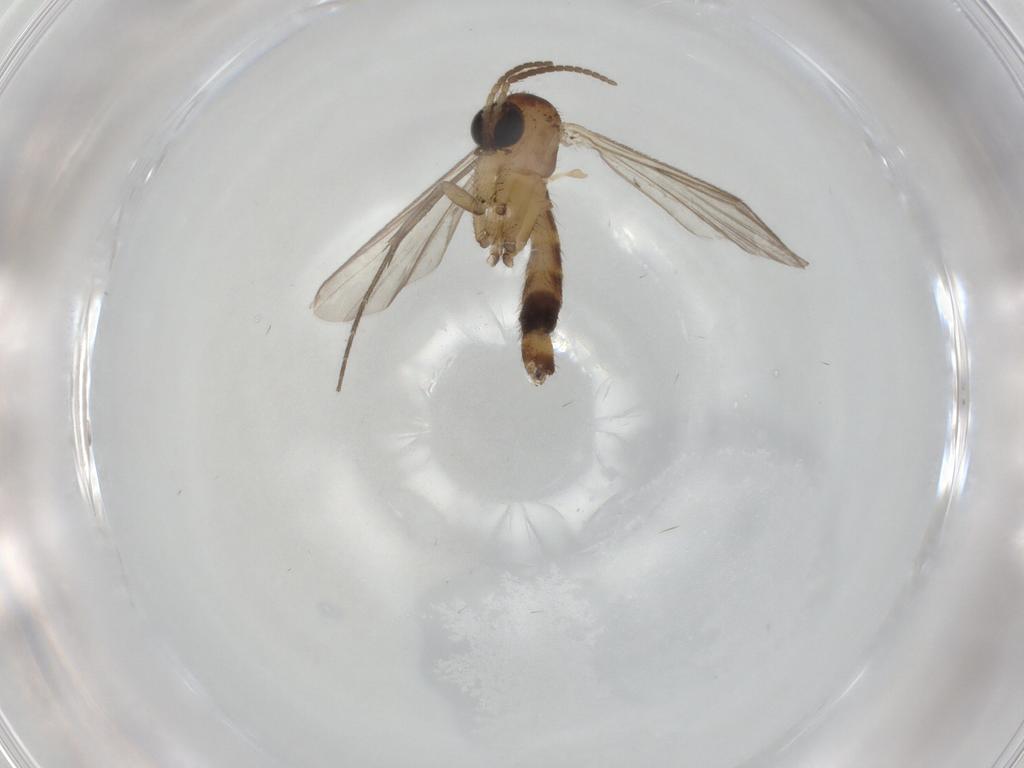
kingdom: Animalia
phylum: Arthropoda
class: Insecta
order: Diptera
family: Mycetophilidae
